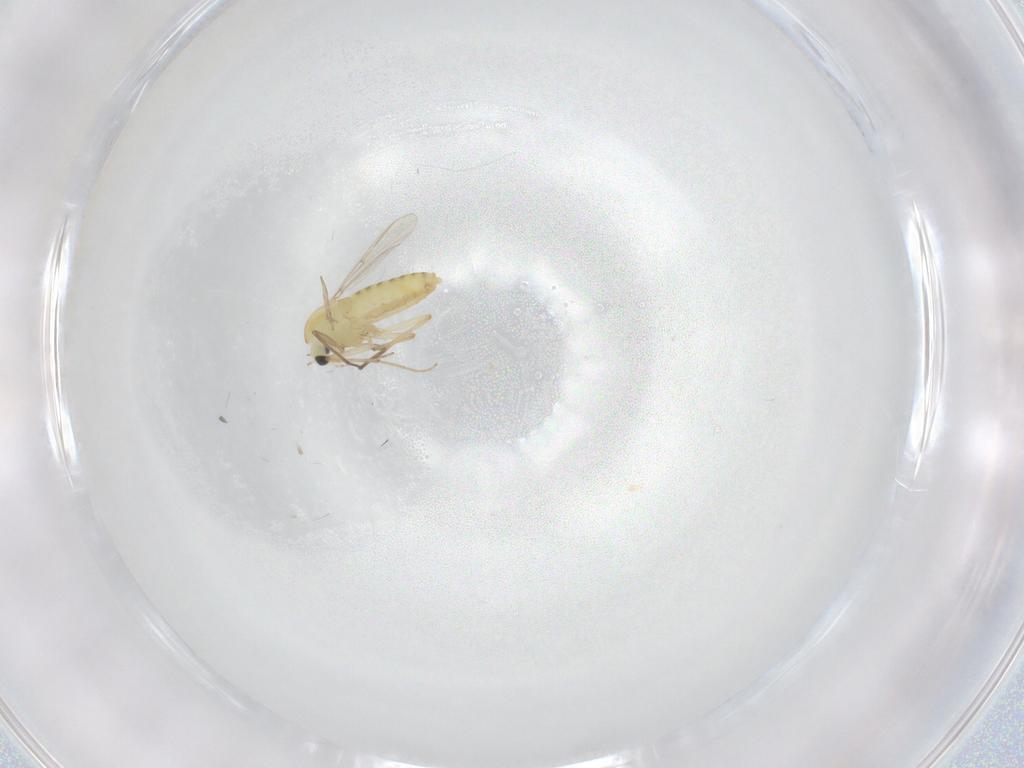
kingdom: Animalia
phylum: Arthropoda
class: Insecta
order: Diptera
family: Chironomidae
